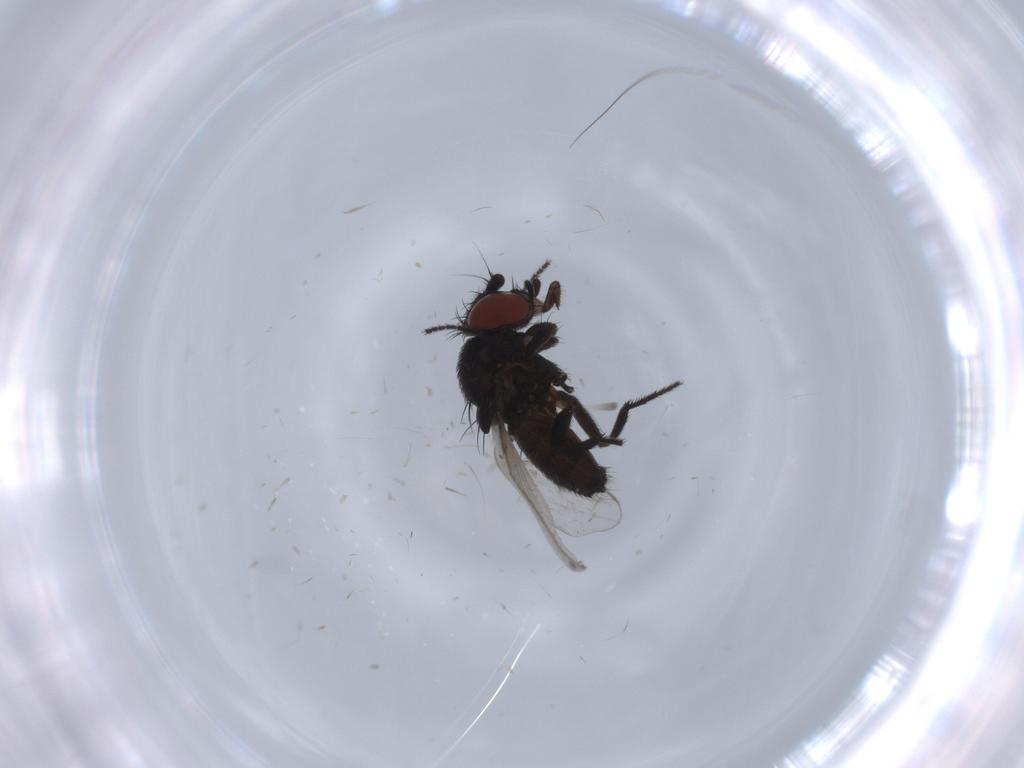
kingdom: Animalia
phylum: Arthropoda
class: Insecta
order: Diptera
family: Milichiidae
